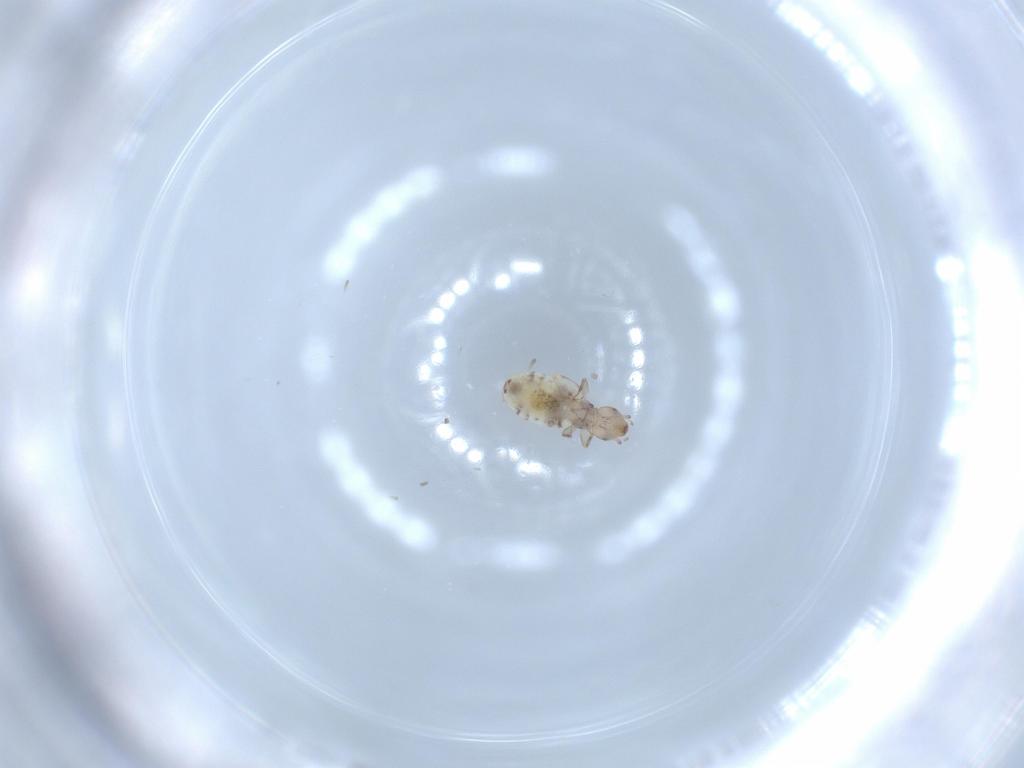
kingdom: Animalia
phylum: Arthropoda
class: Insecta
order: Psocodea
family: Liposcelididae
